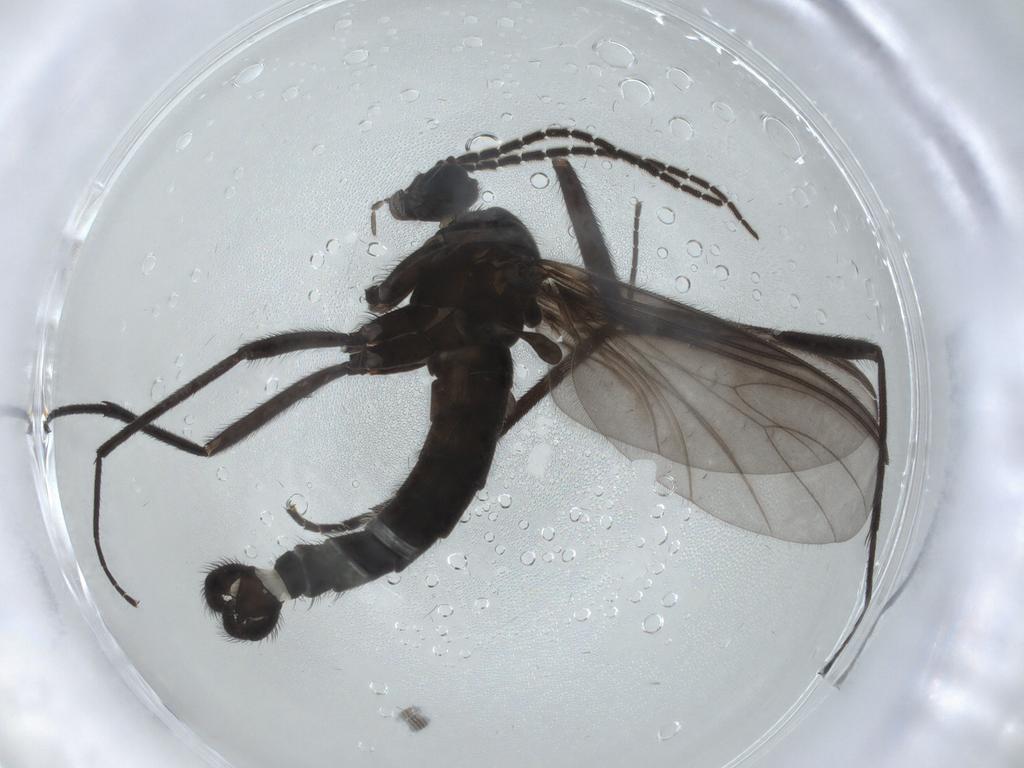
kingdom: Animalia
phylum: Arthropoda
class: Insecta
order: Diptera
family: Sciaridae
